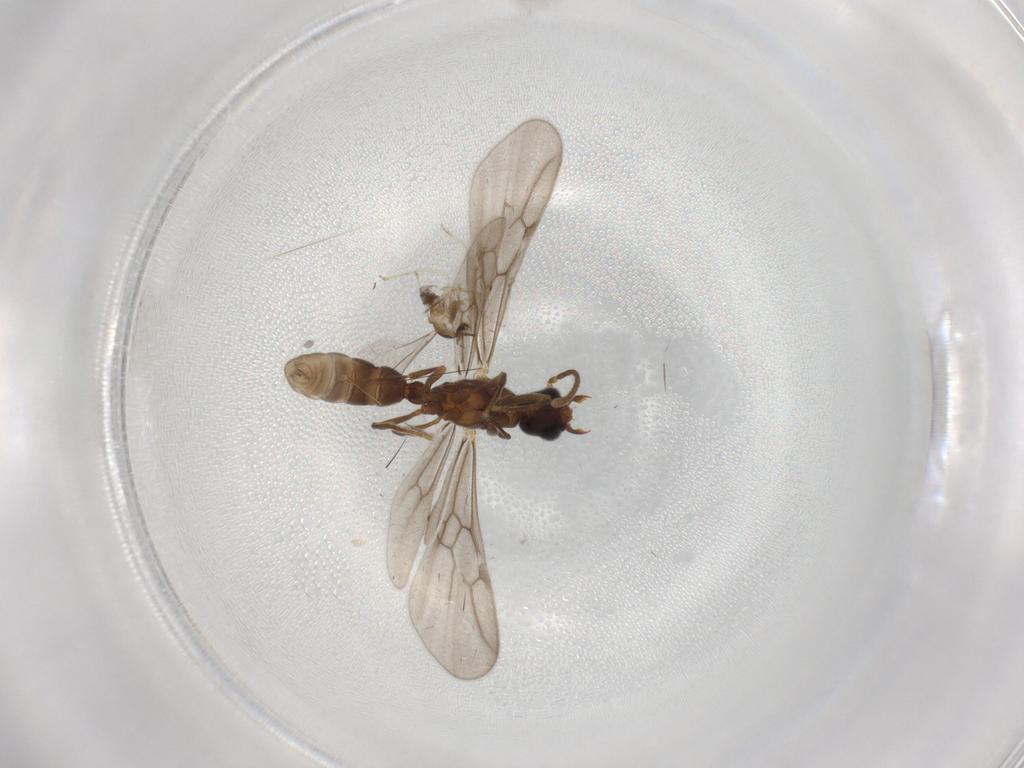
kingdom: Animalia
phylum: Arthropoda
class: Insecta
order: Hymenoptera
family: Formicidae
